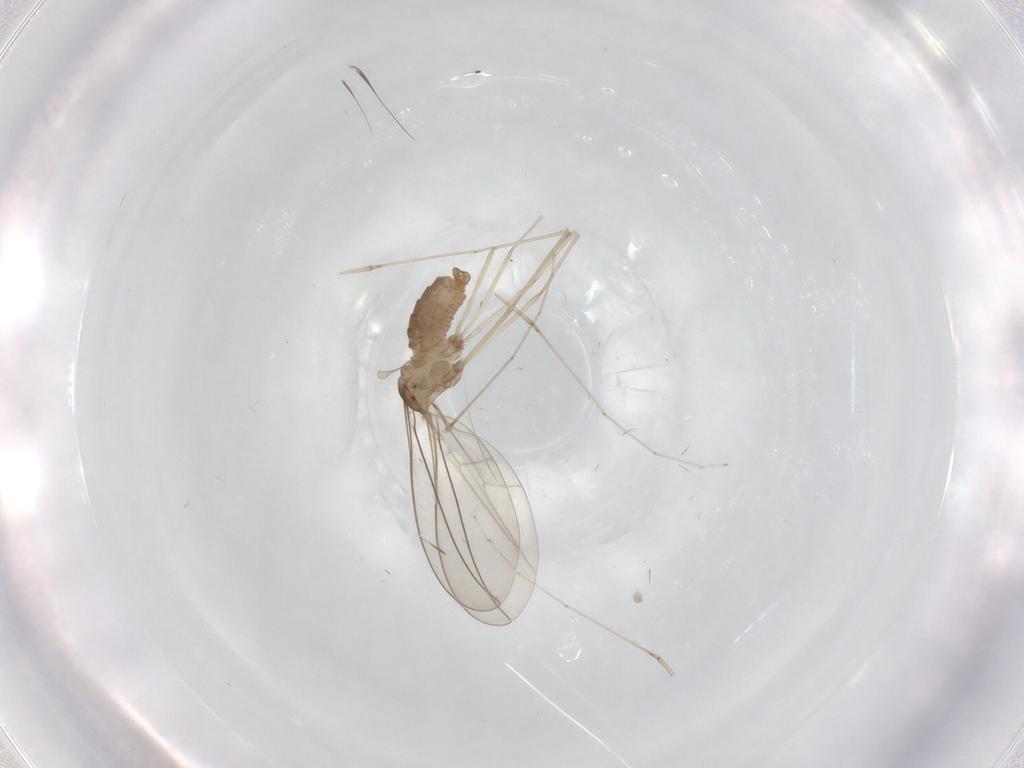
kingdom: Animalia
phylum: Arthropoda
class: Insecta
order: Diptera
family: Cecidomyiidae
